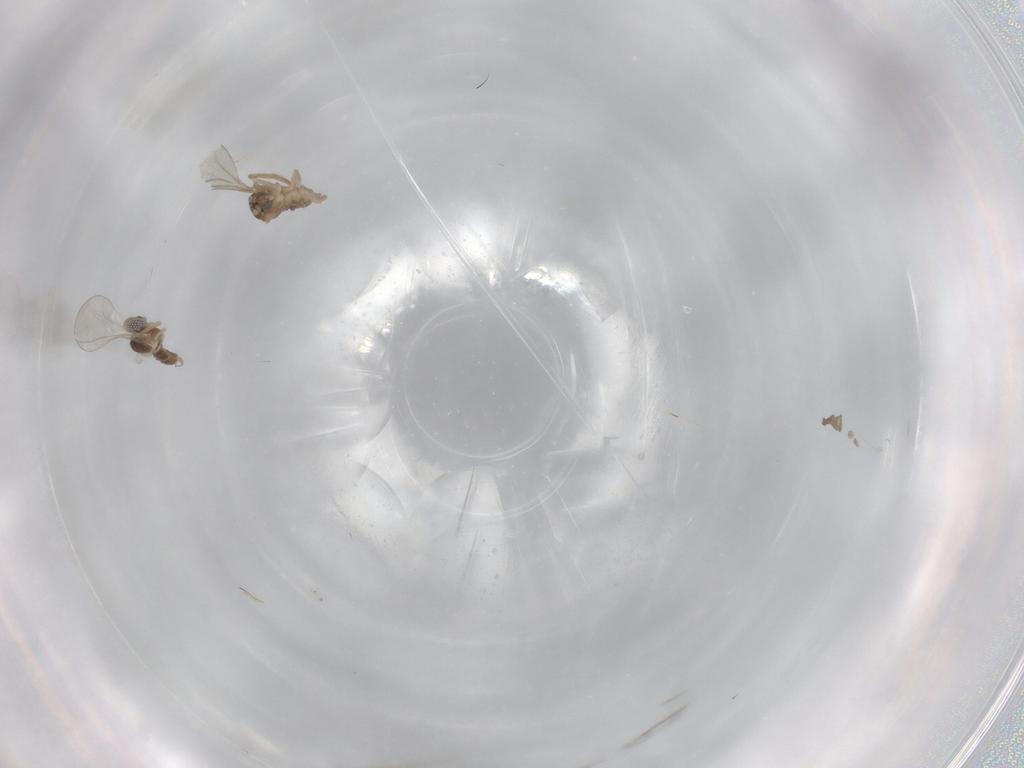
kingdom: Animalia
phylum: Arthropoda
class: Insecta
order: Diptera
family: Cecidomyiidae
